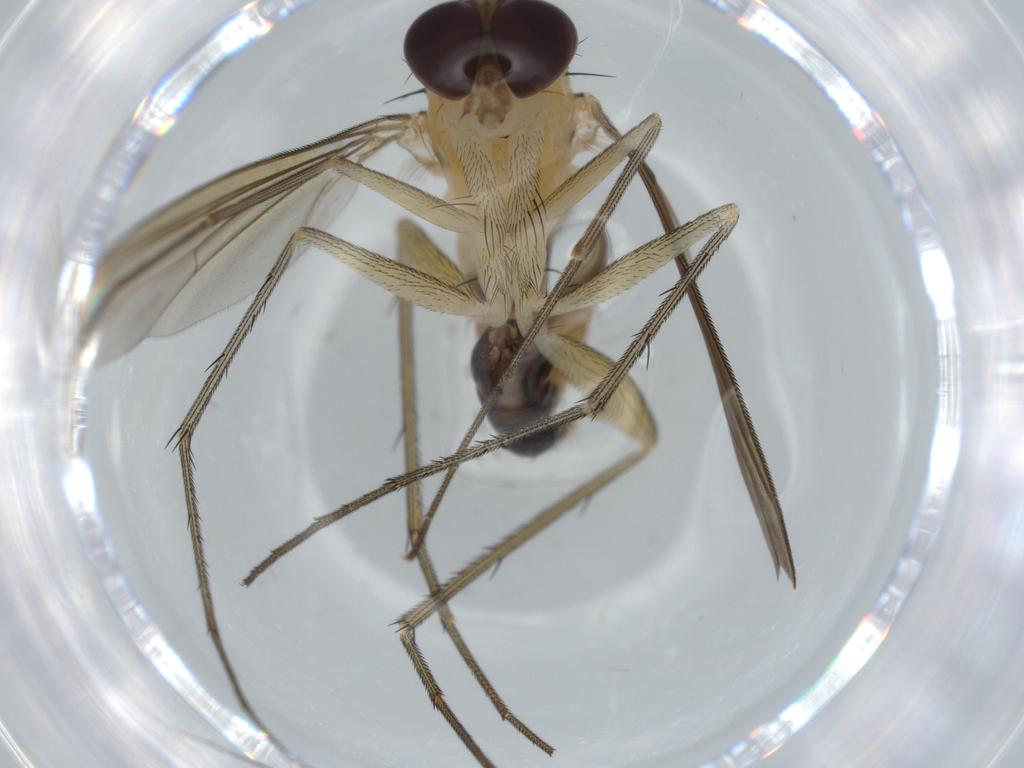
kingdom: Animalia
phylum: Arthropoda
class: Insecta
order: Diptera
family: Dolichopodidae
